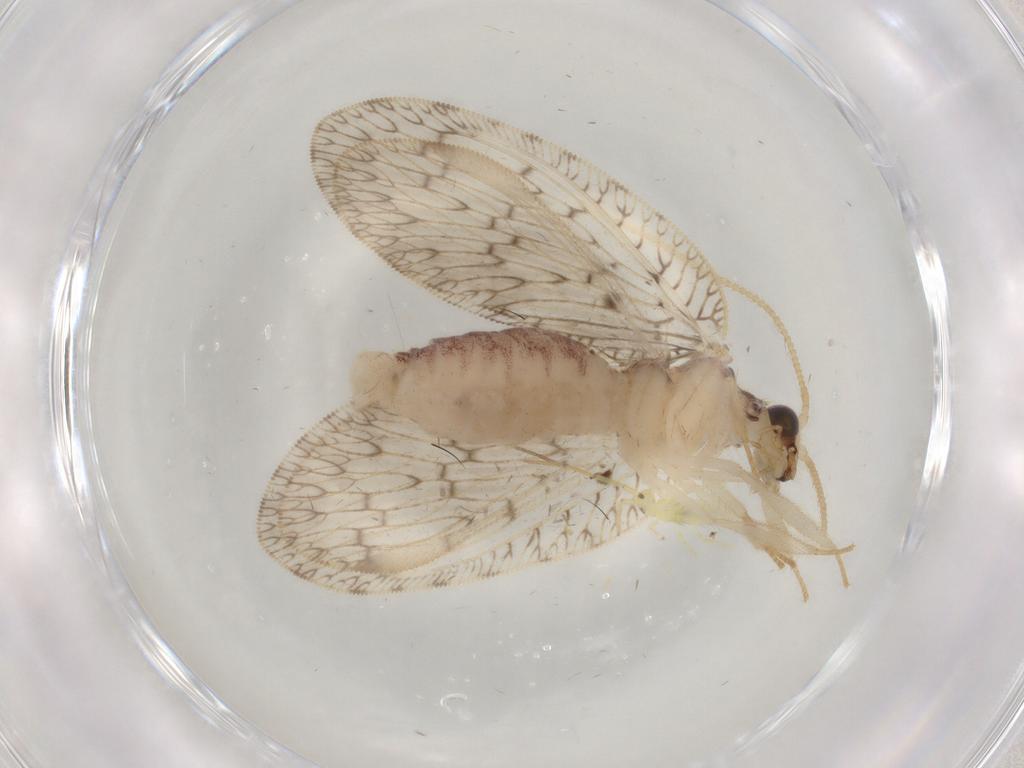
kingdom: Animalia
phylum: Arthropoda
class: Insecta
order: Neuroptera
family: Hemerobiidae
